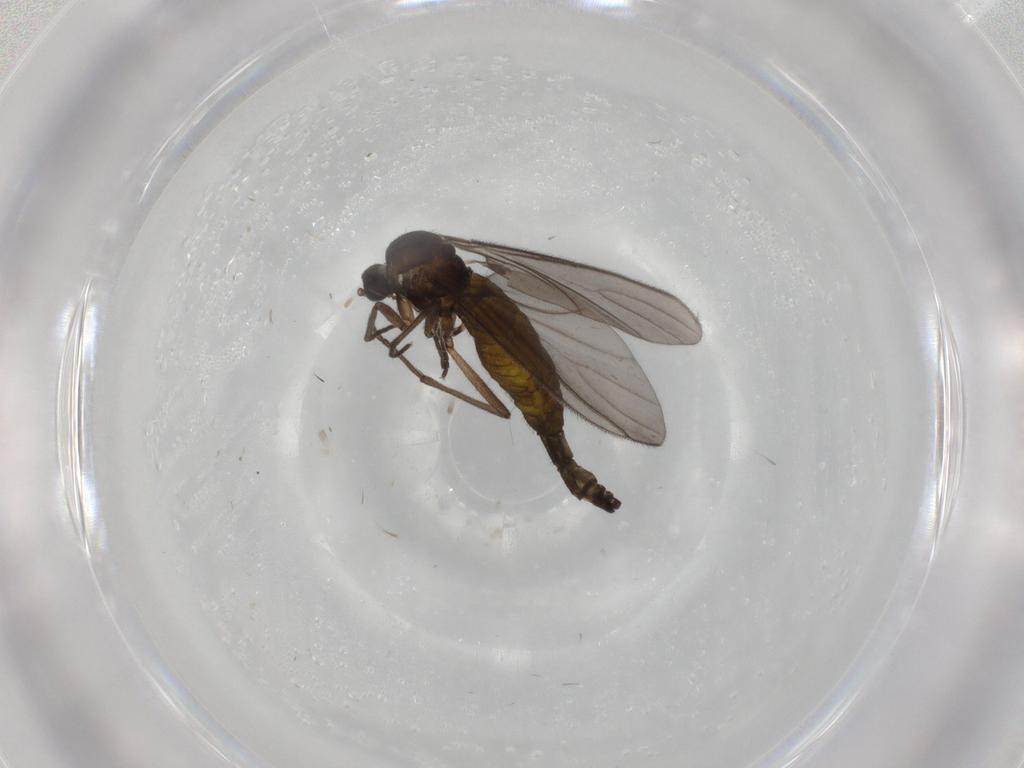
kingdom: Animalia
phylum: Arthropoda
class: Insecta
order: Diptera
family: Sciaridae
